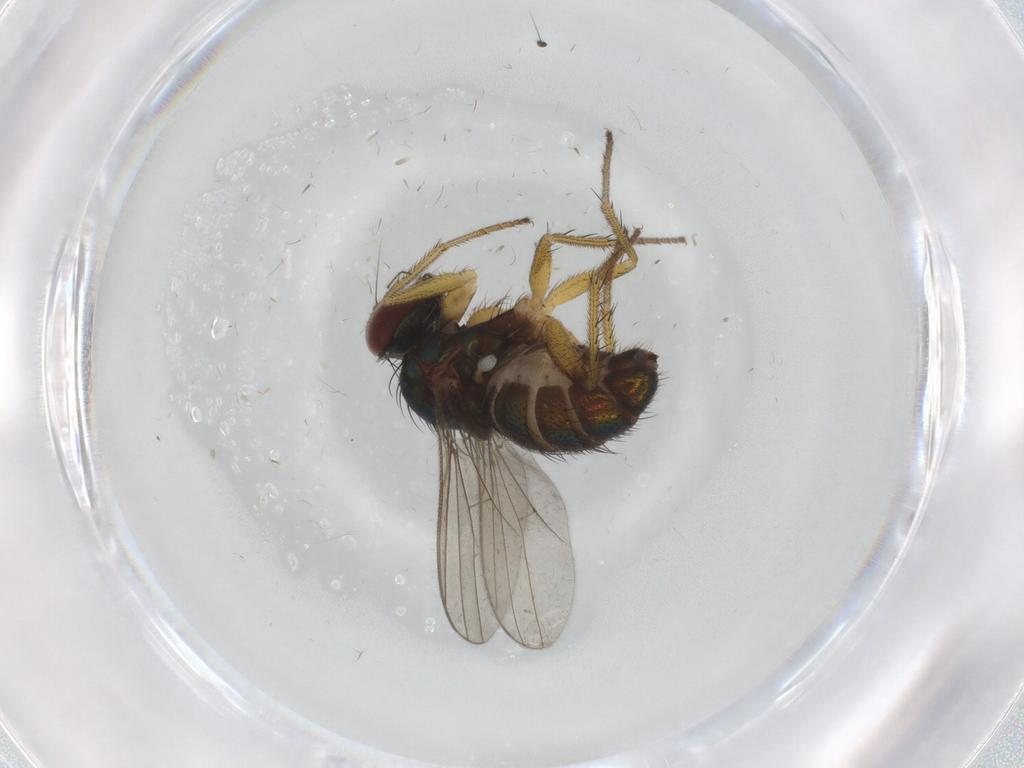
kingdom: Animalia
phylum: Arthropoda
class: Insecta
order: Diptera
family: Dolichopodidae
